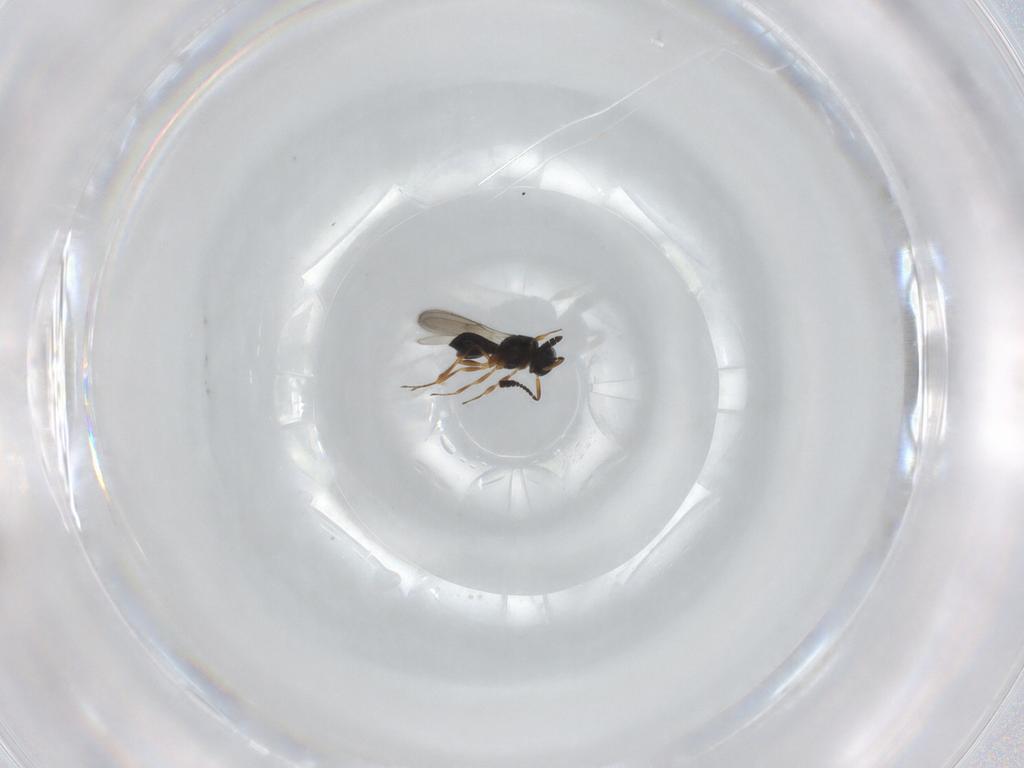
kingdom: Animalia
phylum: Arthropoda
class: Insecta
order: Hymenoptera
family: Scelionidae
